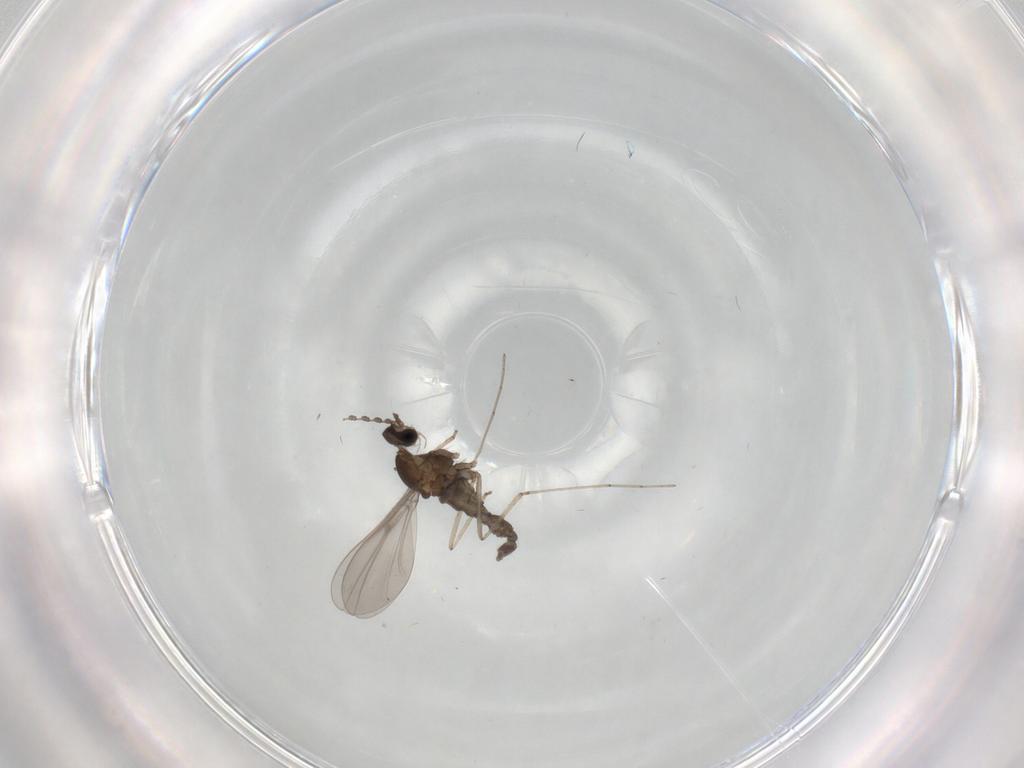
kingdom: Animalia
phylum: Arthropoda
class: Insecta
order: Diptera
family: Cecidomyiidae
